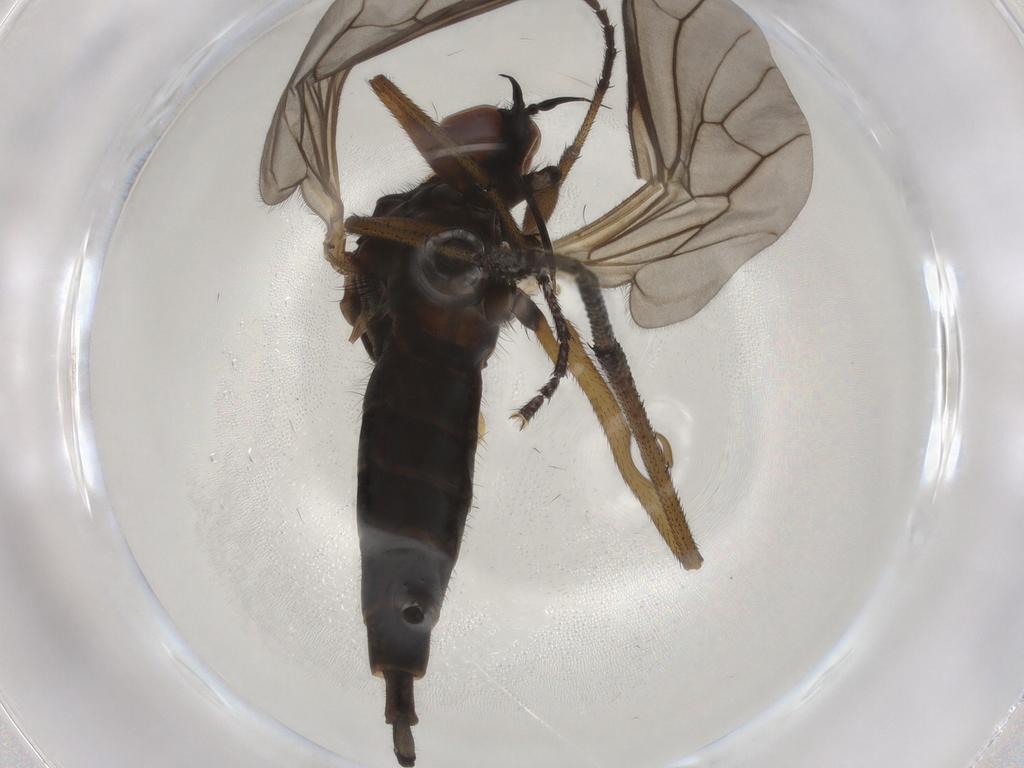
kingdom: Animalia
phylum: Arthropoda
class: Insecta
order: Diptera
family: Empididae
